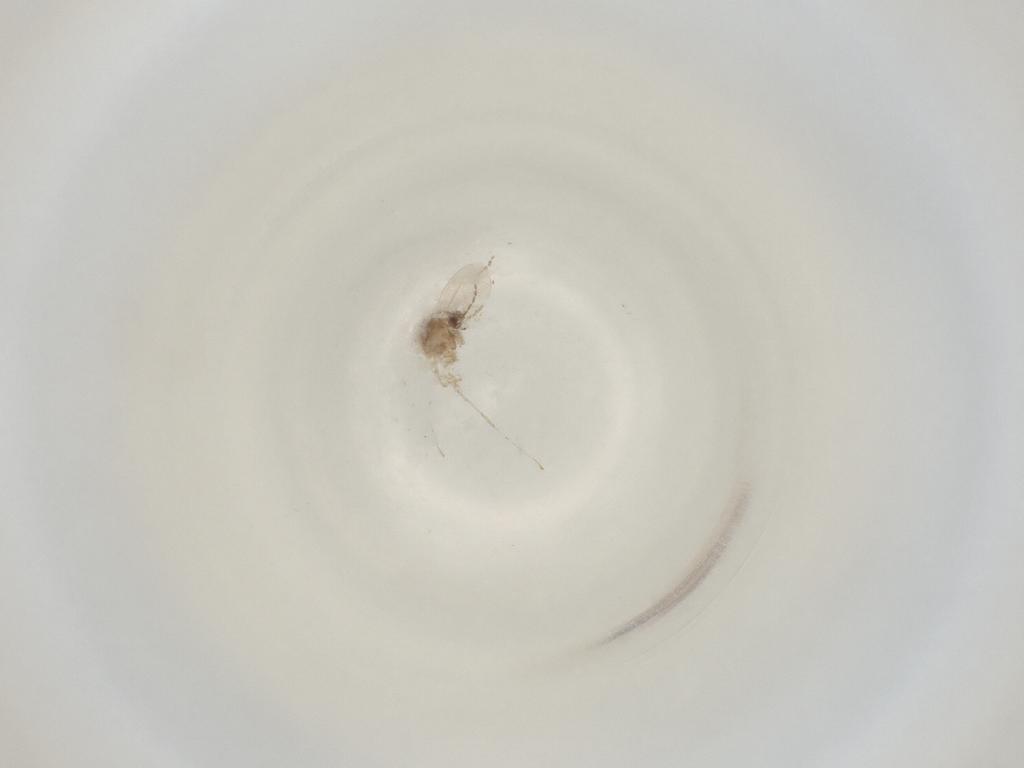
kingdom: Animalia
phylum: Arthropoda
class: Insecta
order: Diptera
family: Cecidomyiidae
